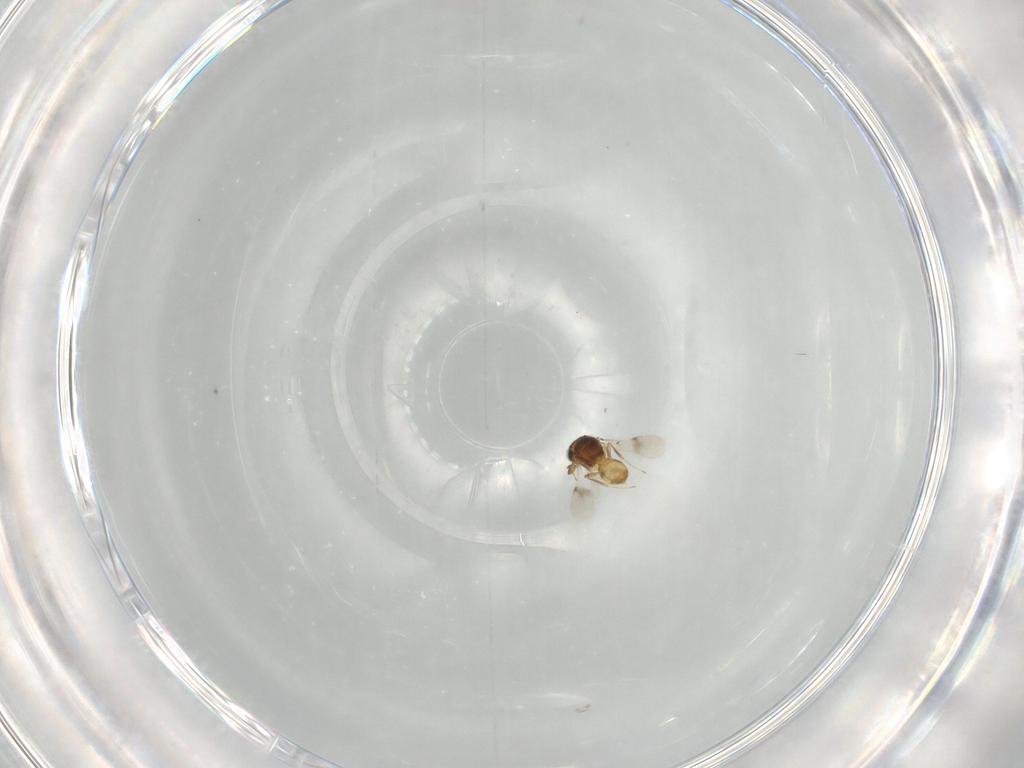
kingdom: Animalia
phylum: Arthropoda
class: Insecta
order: Hymenoptera
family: Scelionidae
